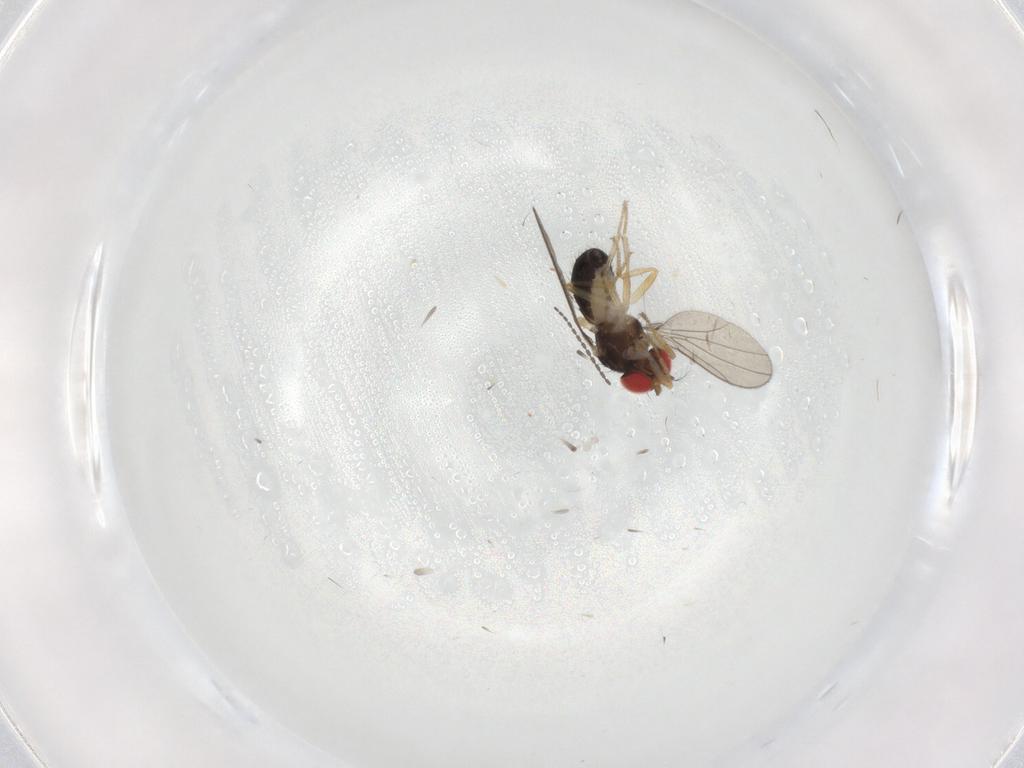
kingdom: Animalia
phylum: Arthropoda
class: Insecta
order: Diptera
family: Drosophilidae
